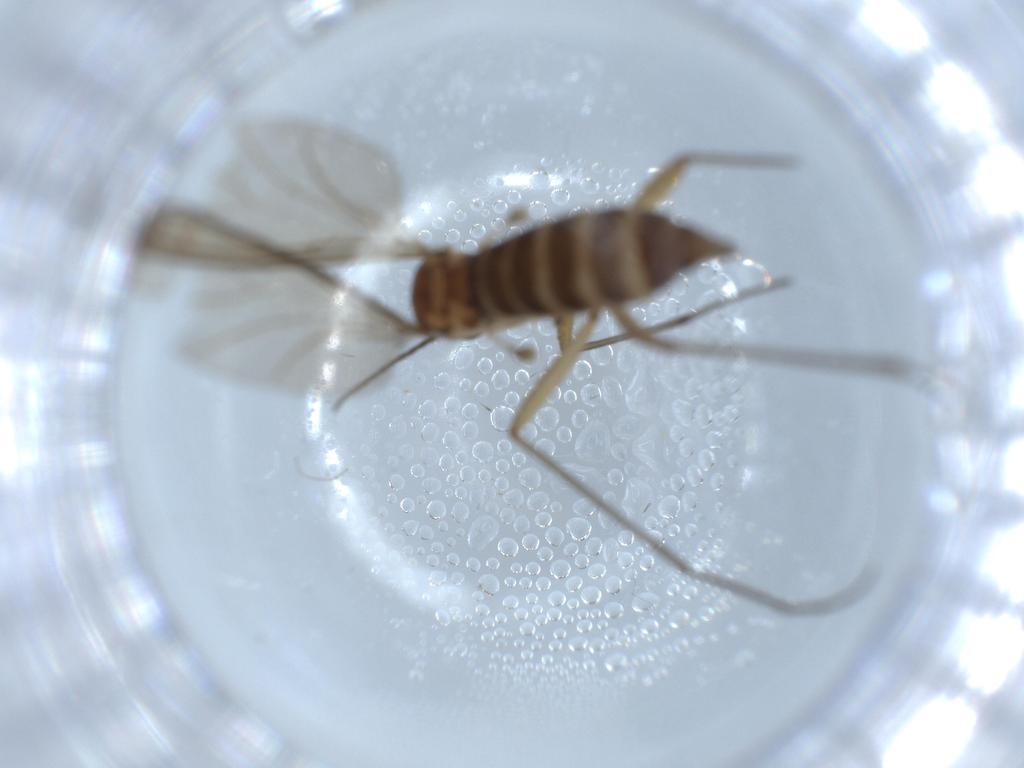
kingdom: Animalia
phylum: Arthropoda
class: Insecta
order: Diptera
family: Sciaridae
